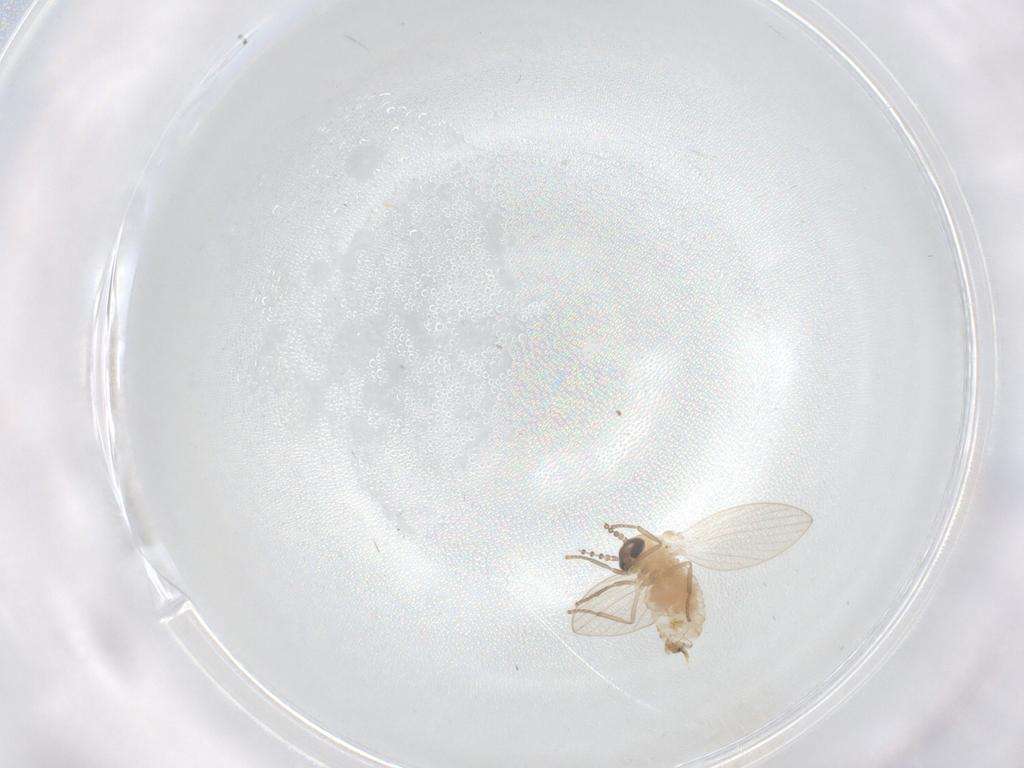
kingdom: Animalia
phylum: Arthropoda
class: Insecta
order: Diptera
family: Psychodidae
